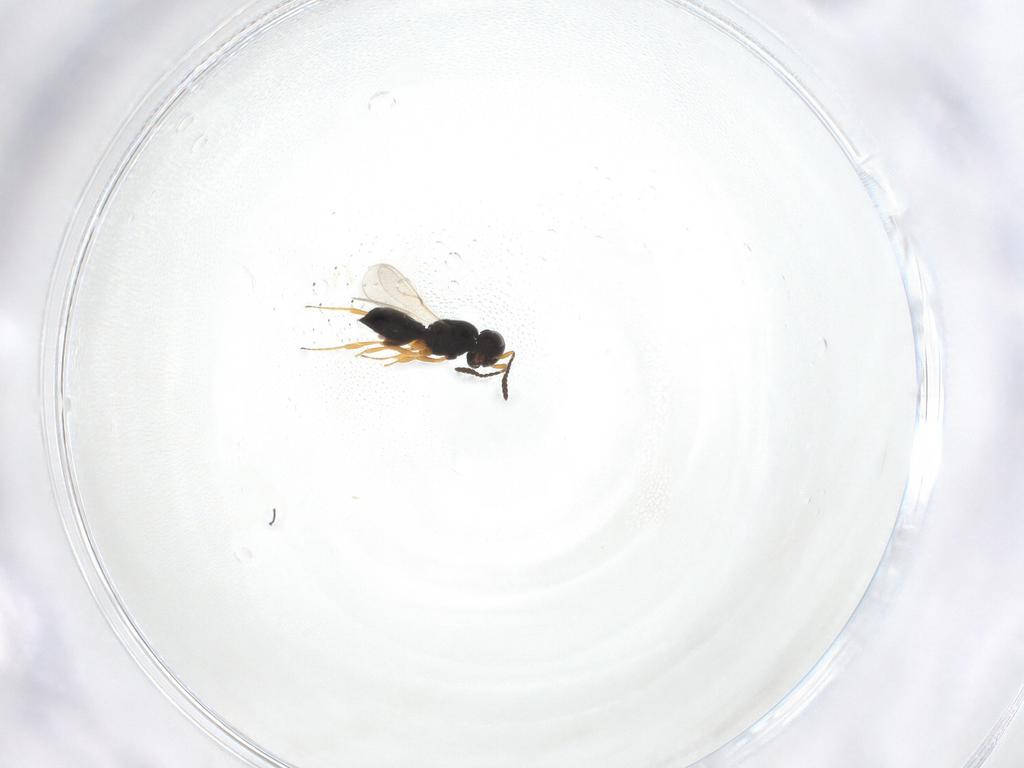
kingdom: Animalia
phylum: Arthropoda
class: Insecta
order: Hymenoptera
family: Scelionidae
